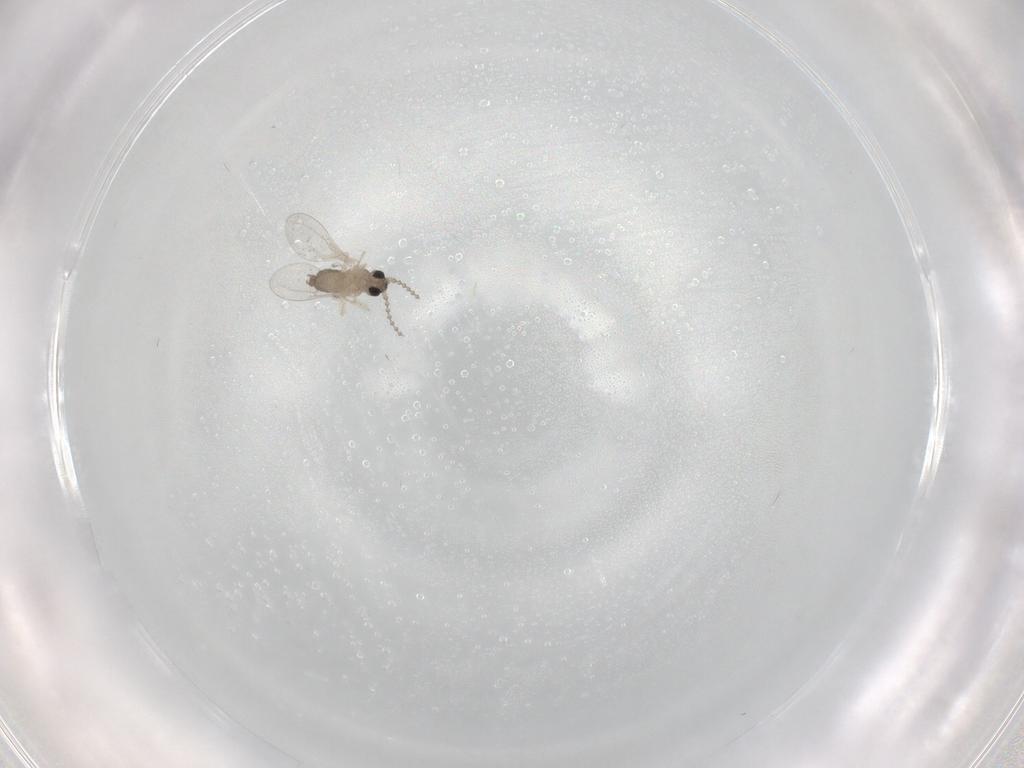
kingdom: Animalia
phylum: Arthropoda
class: Insecta
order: Diptera
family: Cecidomyiidae
